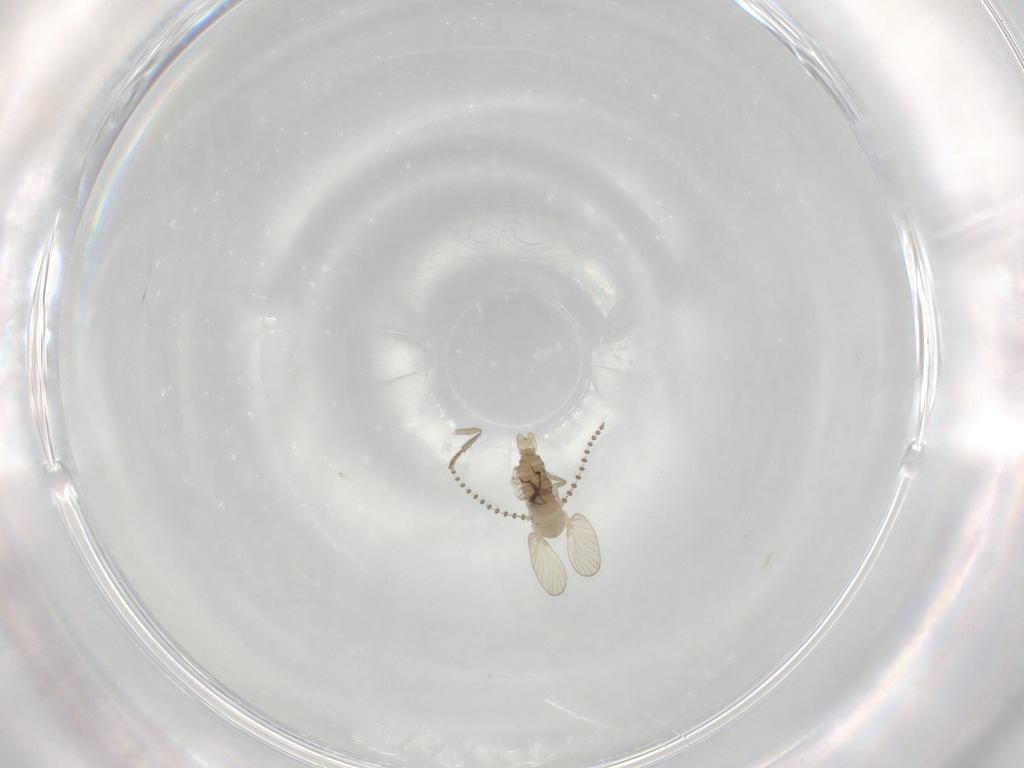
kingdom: Animalia
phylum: Arthropoda
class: Insecta
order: Diptera
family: Psychodidae
